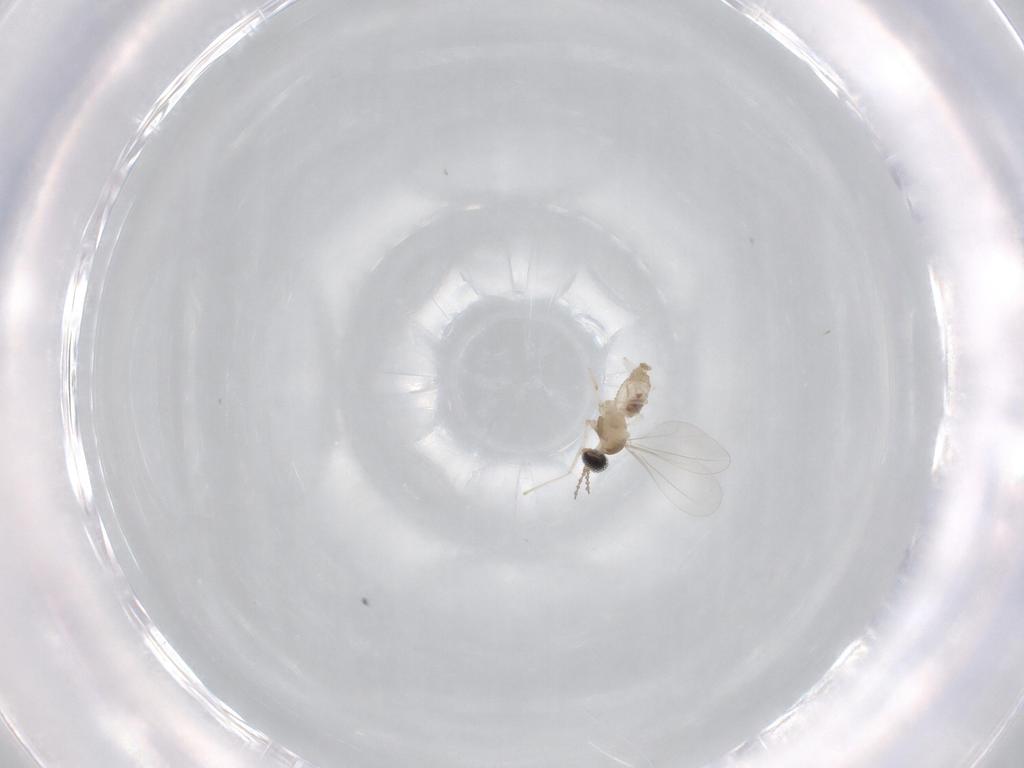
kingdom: Animalia
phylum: Arthropoda
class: Insecta
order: Diptera
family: Cecidomyiidae
